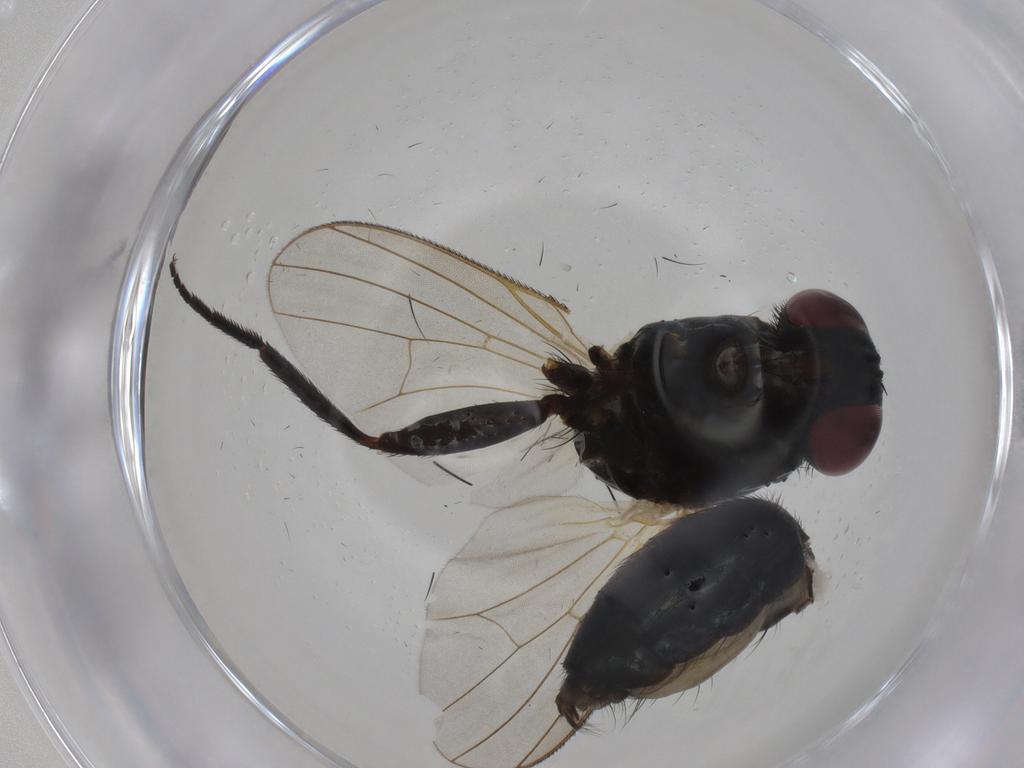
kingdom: Animalia
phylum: Arthropoda
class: Insecta
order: Diptera
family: Fannia
